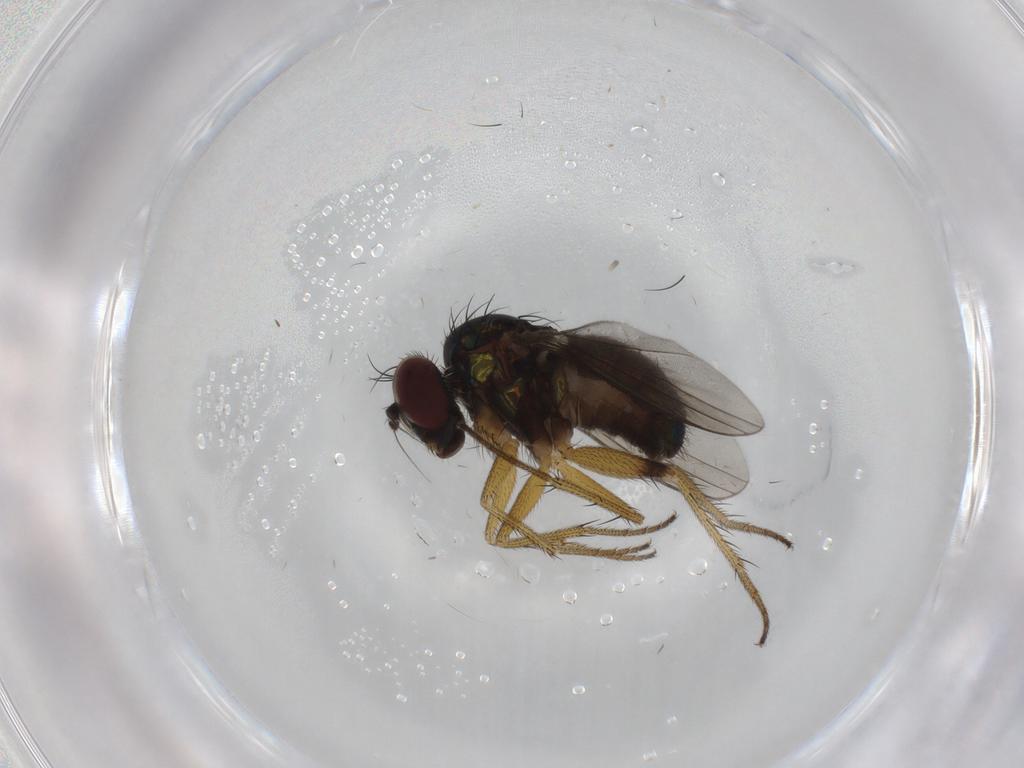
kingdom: Animalia
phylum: Arthropoda
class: Insecta
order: Diptera
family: Dolichopodidae
